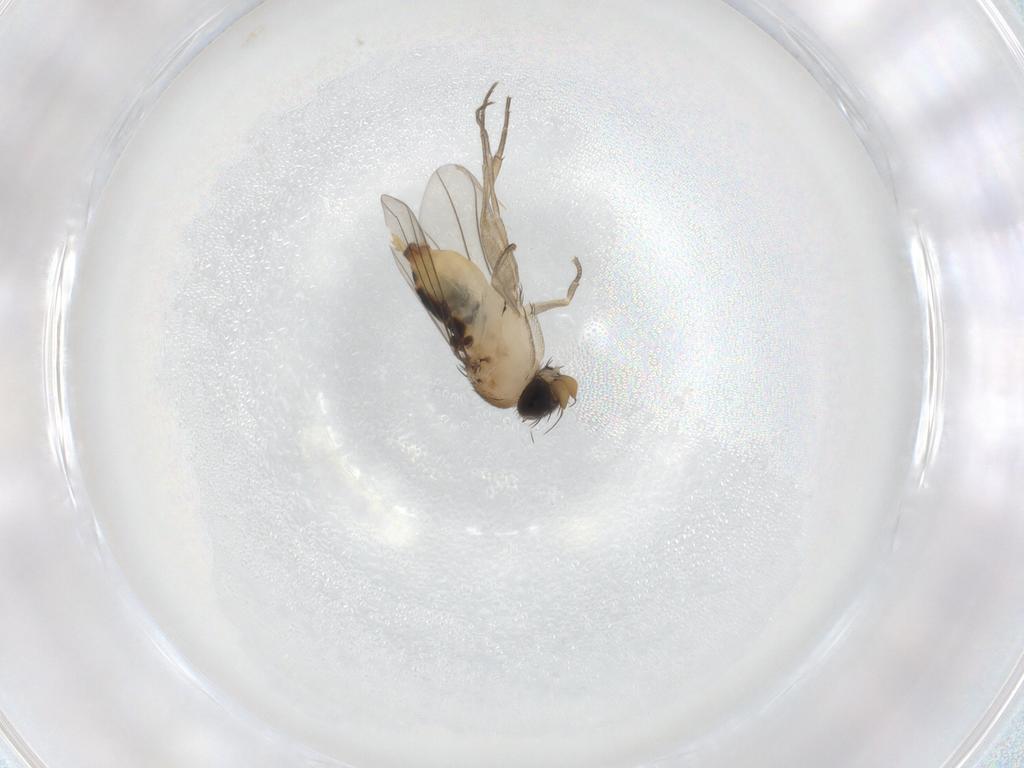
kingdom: Animalia
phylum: Arthropoda
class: Insecta
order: Diptera
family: Phoridae
